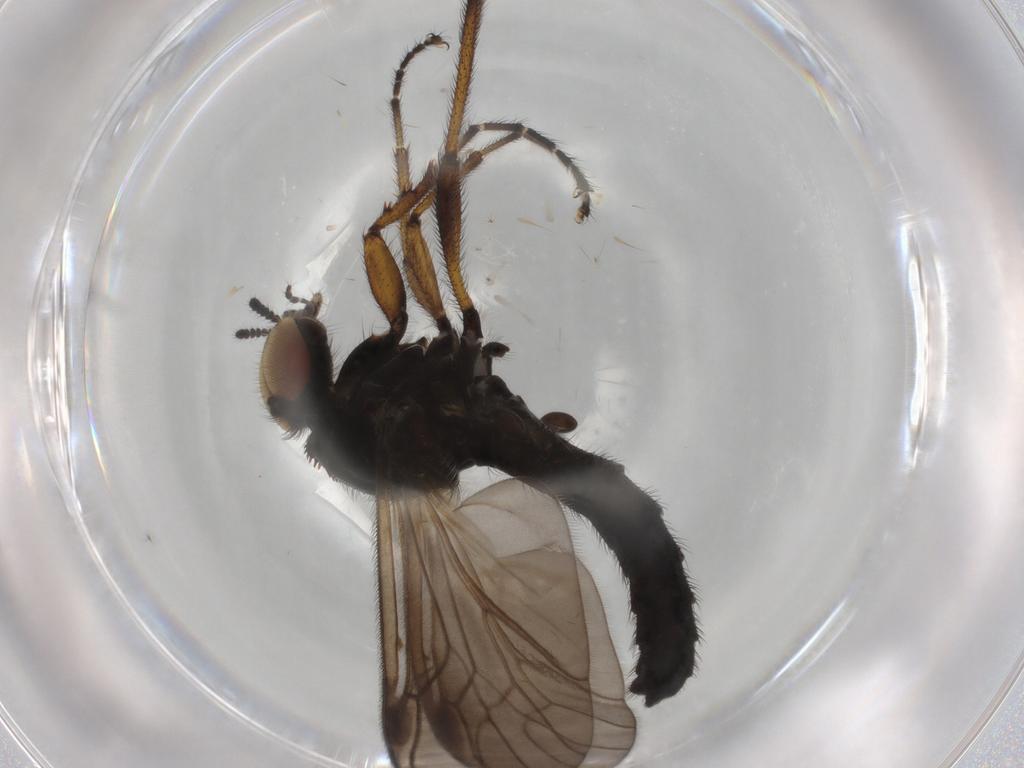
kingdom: Animalia
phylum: Arthropoda
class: Insecta
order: Diptera
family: Bibionidae
